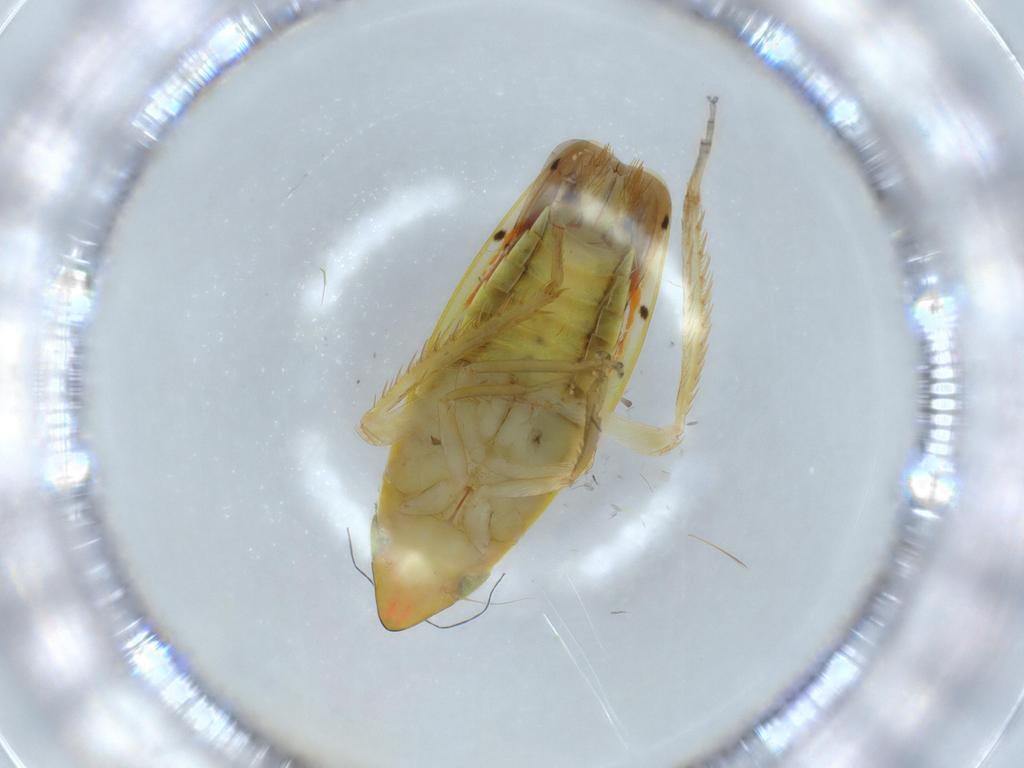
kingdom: Animalia
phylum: Arthropoda
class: Insecta
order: Hemiptera
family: Cicadellidae
